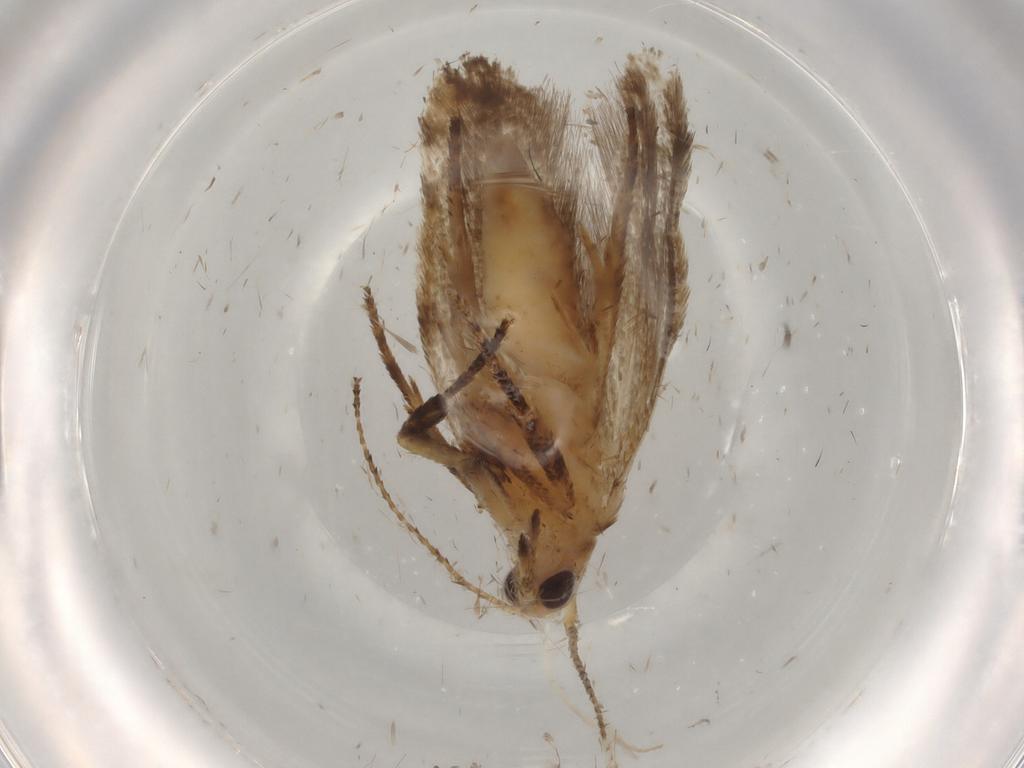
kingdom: Animalia
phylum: Arthropoda
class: Insecta
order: Lepidoptera
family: Ypsolophidae
